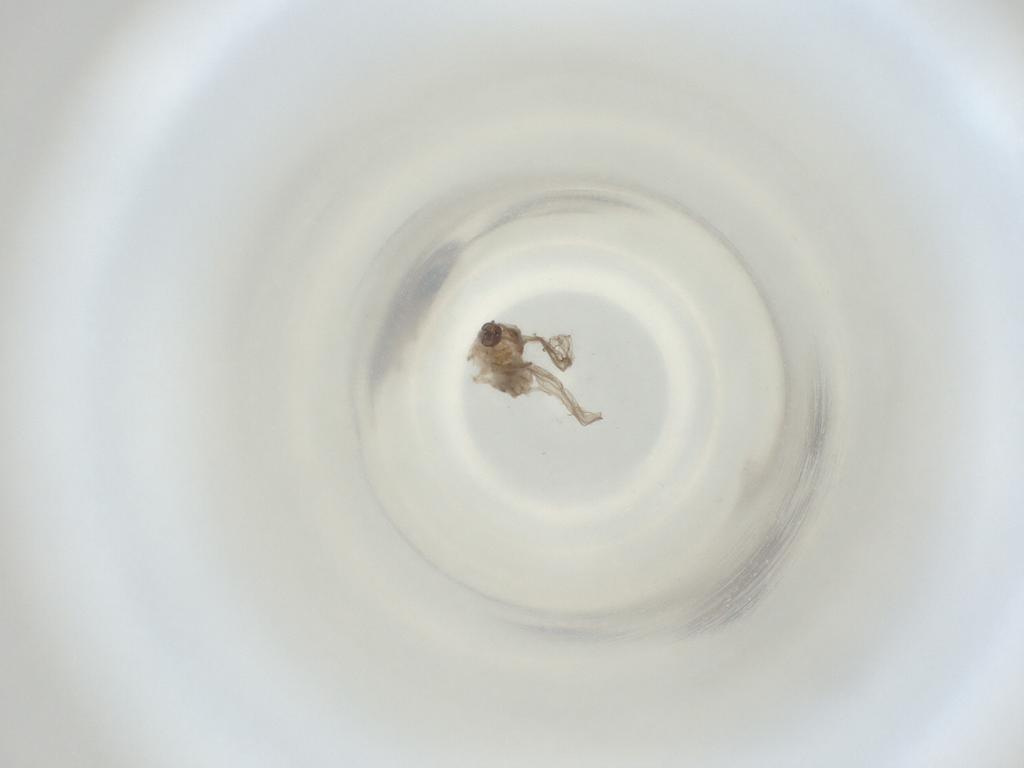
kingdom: Animalia
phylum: Arthropoda
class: Insecta
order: Diptera
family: Cecidomyiidae
